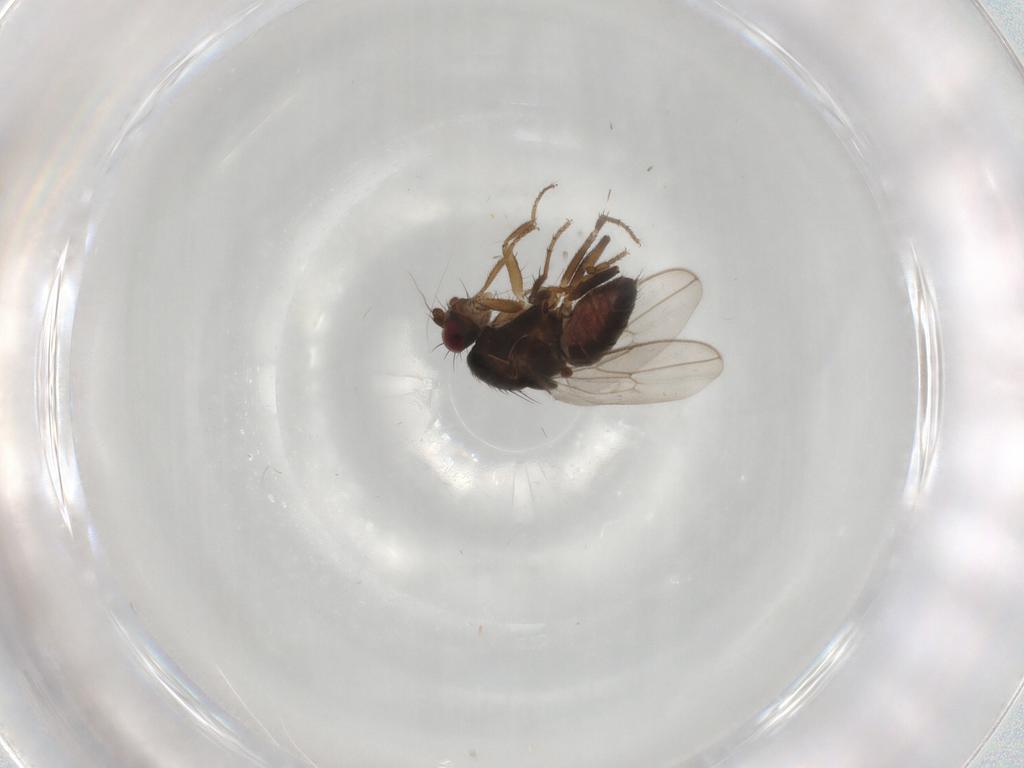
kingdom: Animalia
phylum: Arthropoda
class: Insecta
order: Diptera
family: Sphaeroceridae
